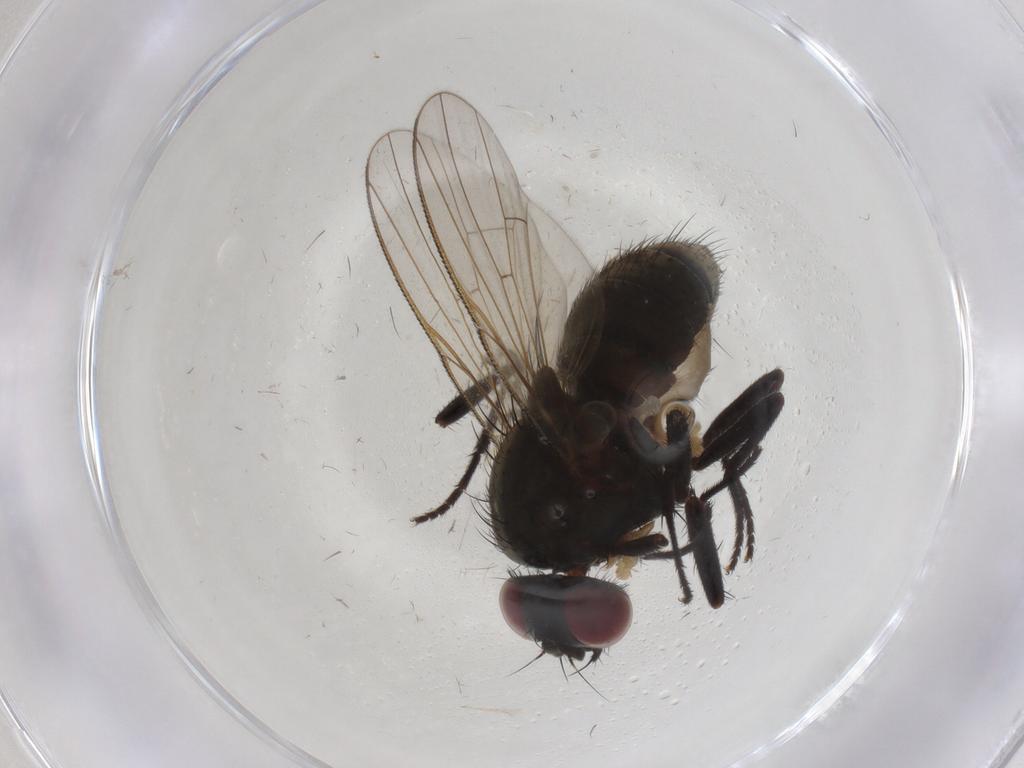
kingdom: Animalia
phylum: Arthropoda
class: Insecta
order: Diptera
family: Muscidae
